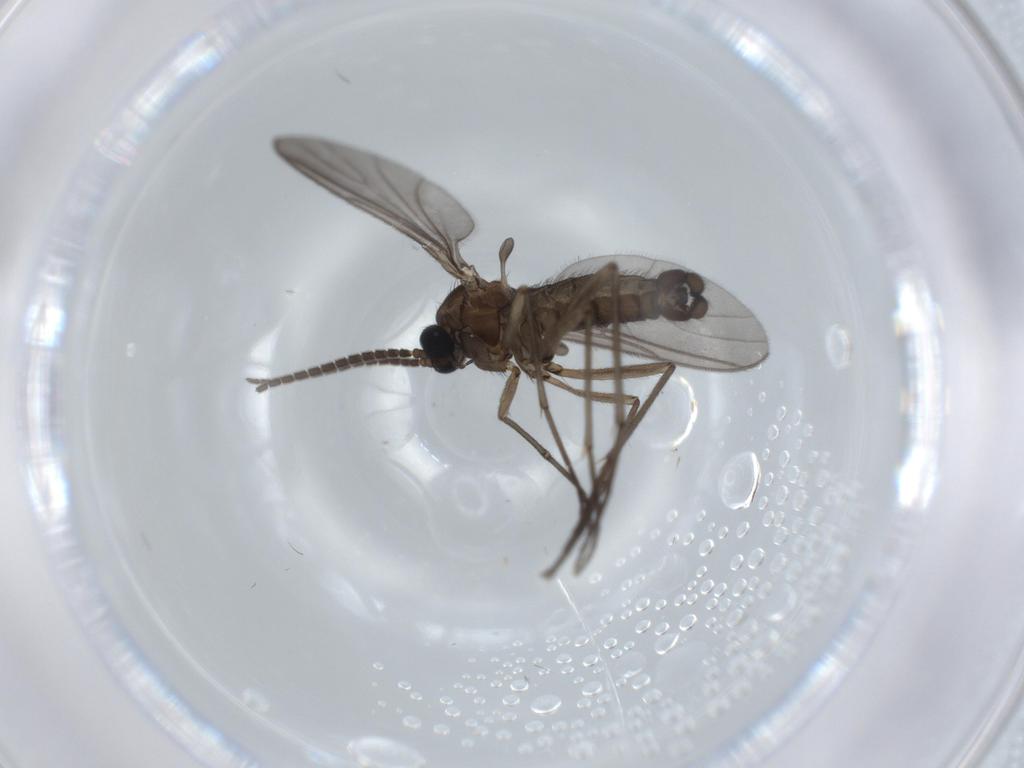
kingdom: Animalia
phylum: Arthropoda
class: Insecta
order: Diptera
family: Sciaridae
